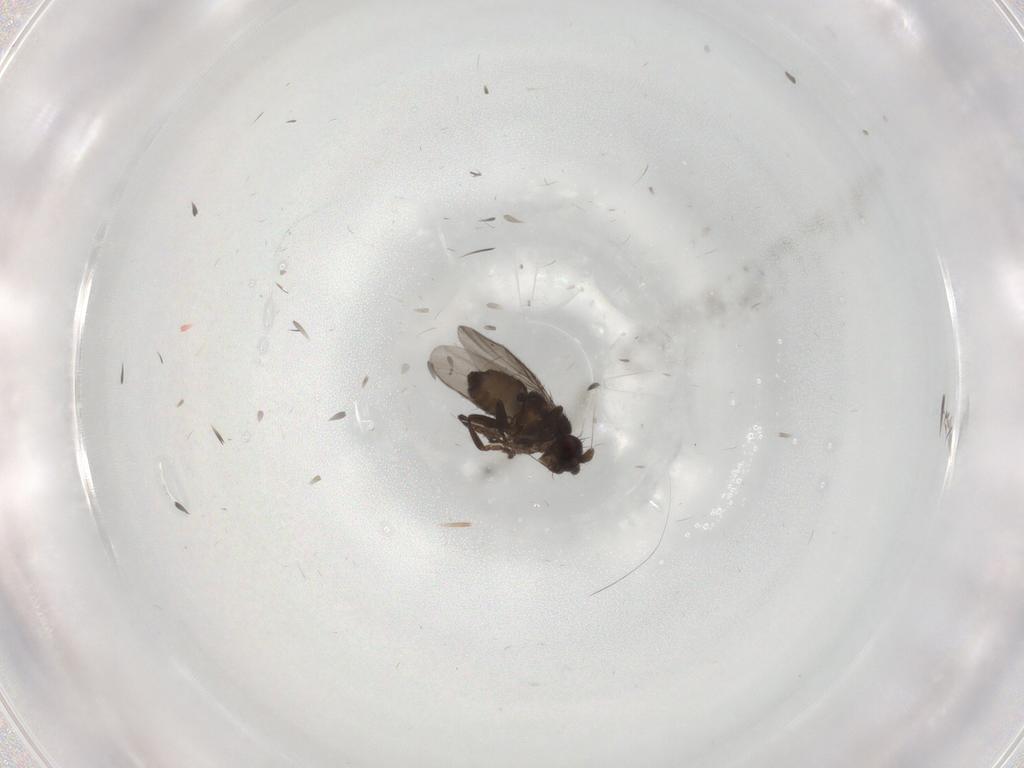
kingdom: Animalia
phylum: Arthropoda
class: Insecta
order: Diptera
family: Sphaeroceridae
